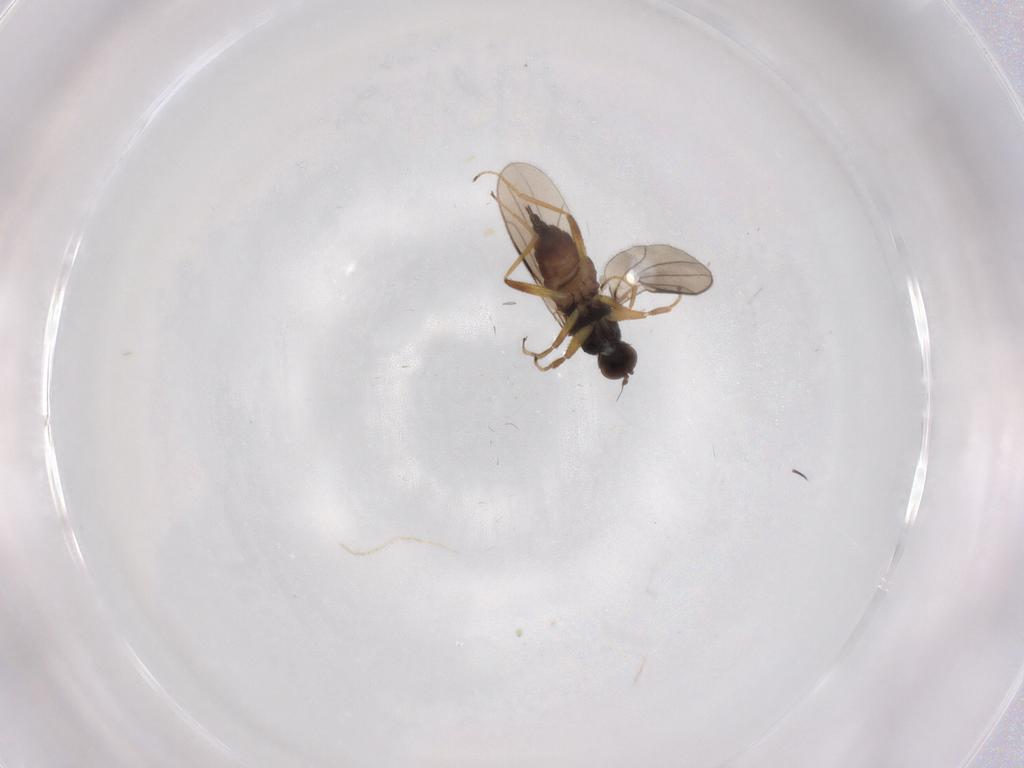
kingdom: Animalia
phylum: Arthropoda
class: Insecta
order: Diptera
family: Hybotidae
